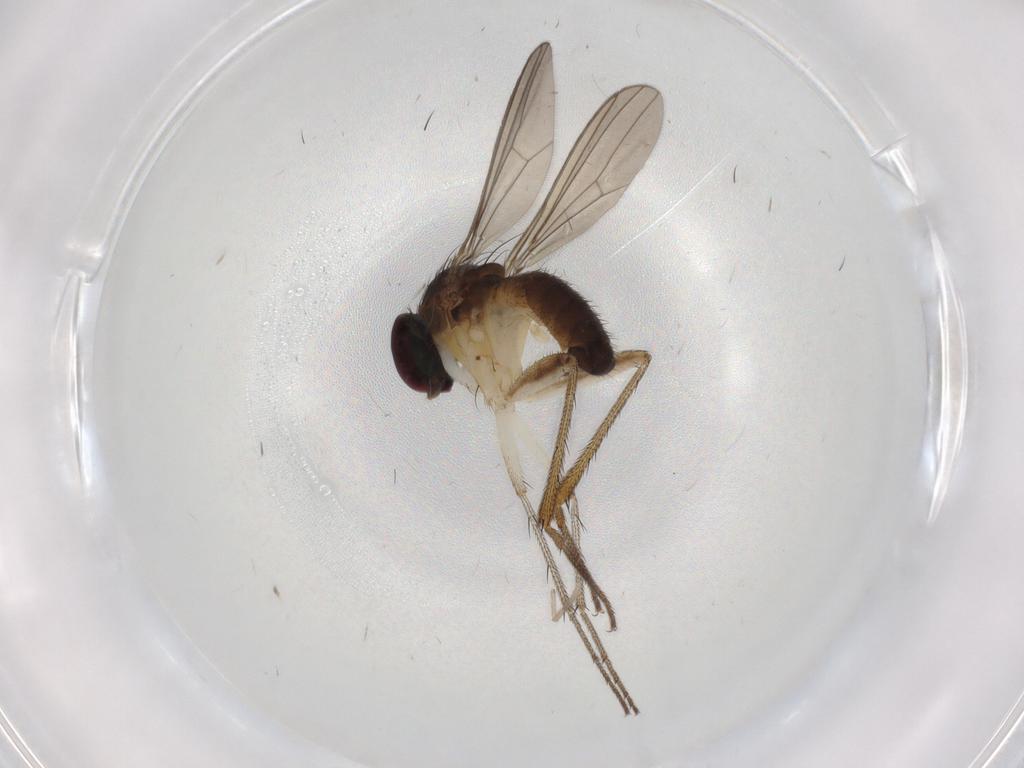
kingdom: Animalia
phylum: Arthropoda
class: Insecta
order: Diptera
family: Dolichopodidae
